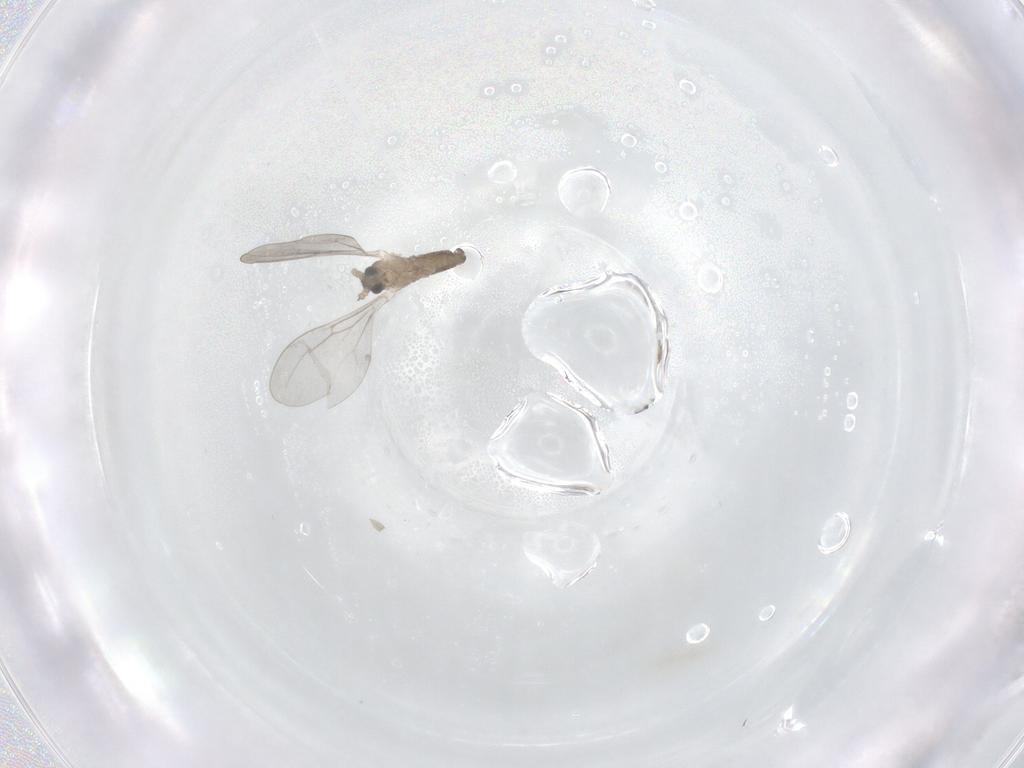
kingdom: Animalia
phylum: Arthropoda
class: Insecta
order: Diptera
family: Cecidomyiidae
